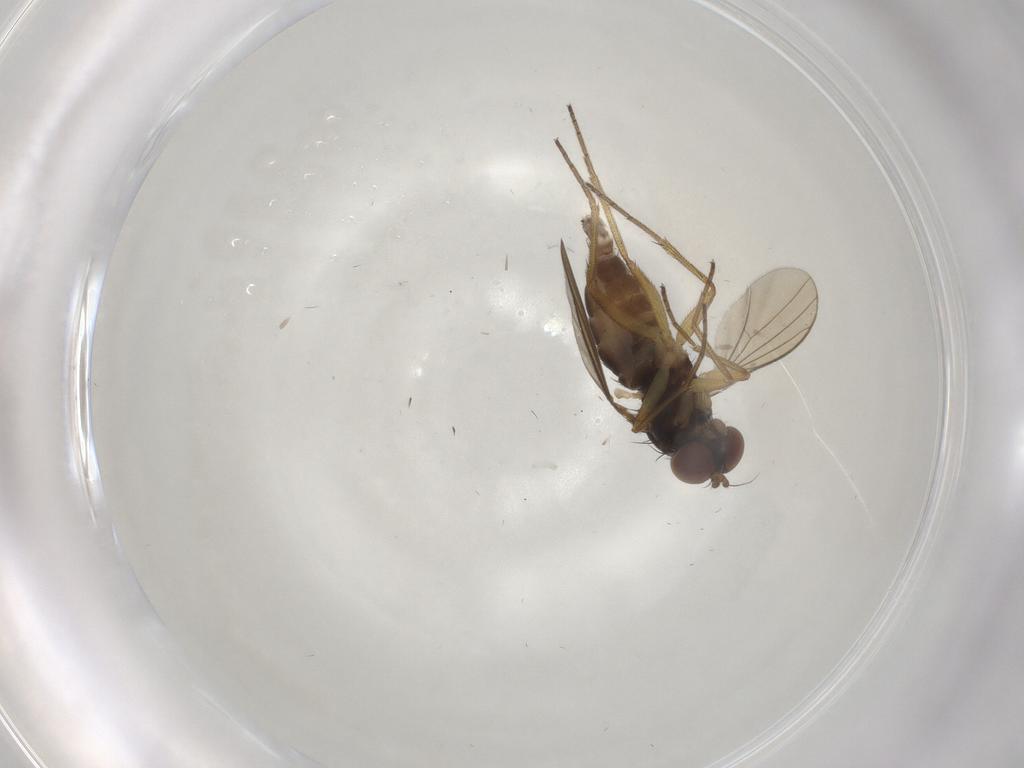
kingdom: Animalia
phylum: Arthropoda
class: Insecta
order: Diptera
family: Dolichopodidae
